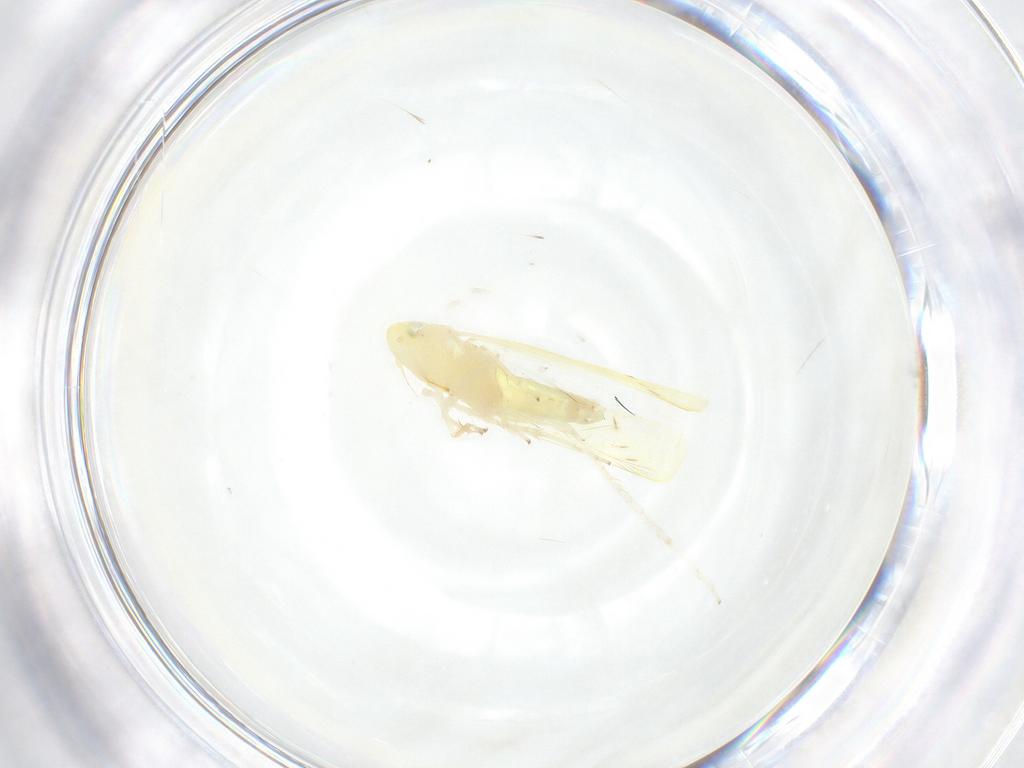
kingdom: Animalia
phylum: Arthropoda
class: Insecta
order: Hemiptera
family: Cicadellidae
